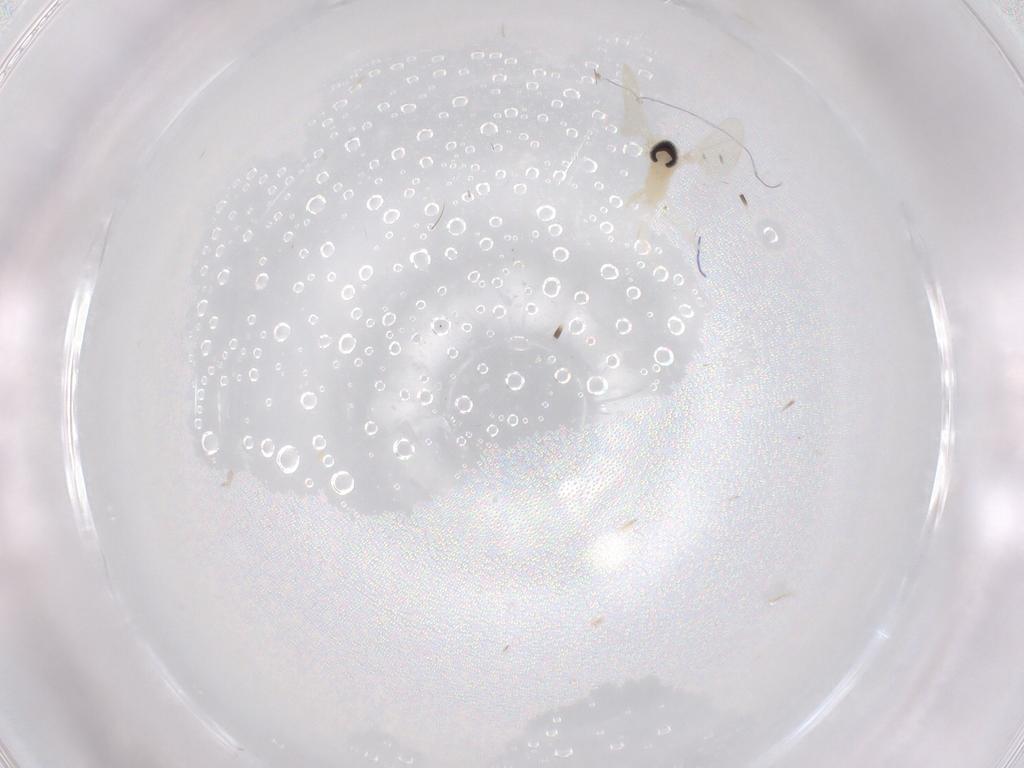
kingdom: Animalia
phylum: Arthropoda
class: Insecta
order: Diptera
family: Cecidomyiidae
